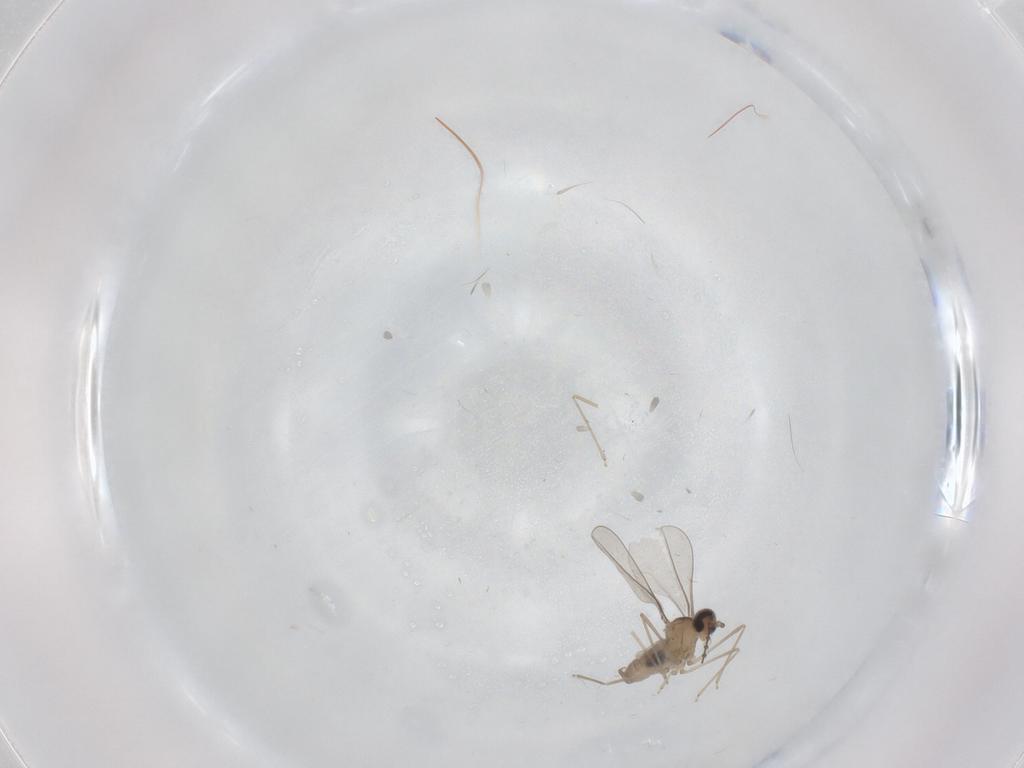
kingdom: Animalia
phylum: Arthropoda
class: Insecta
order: Diptera
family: Cecidomyiidae
